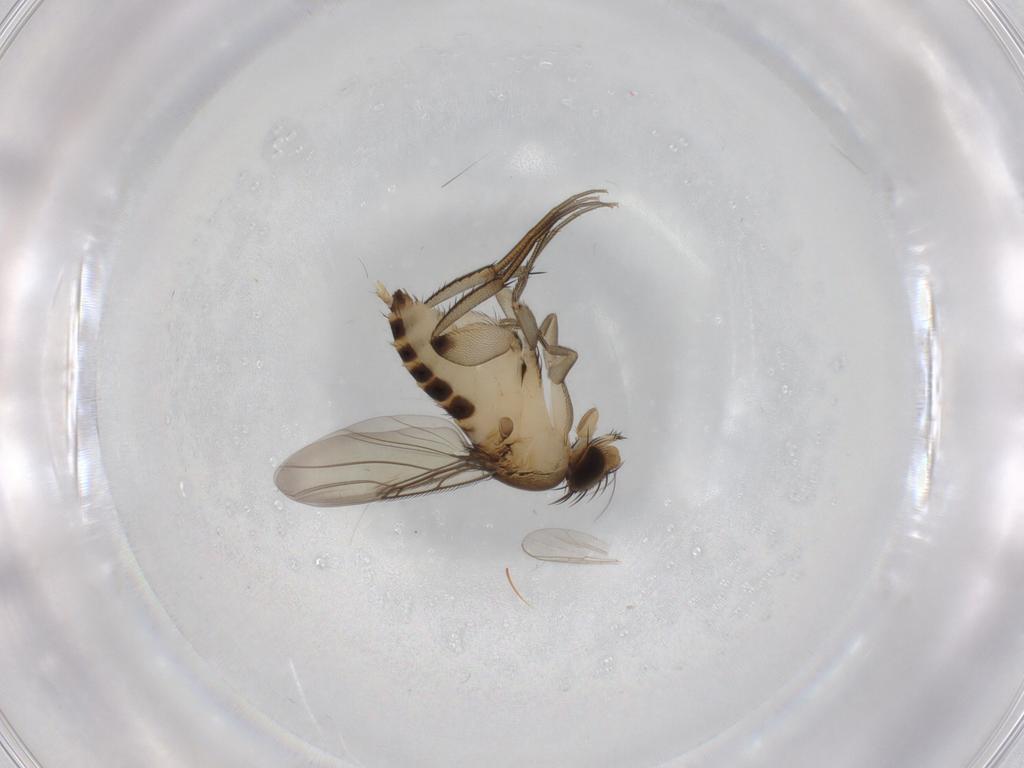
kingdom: Animalia
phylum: Arthropoda
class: Insecta
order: Diptera
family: Phoridae
